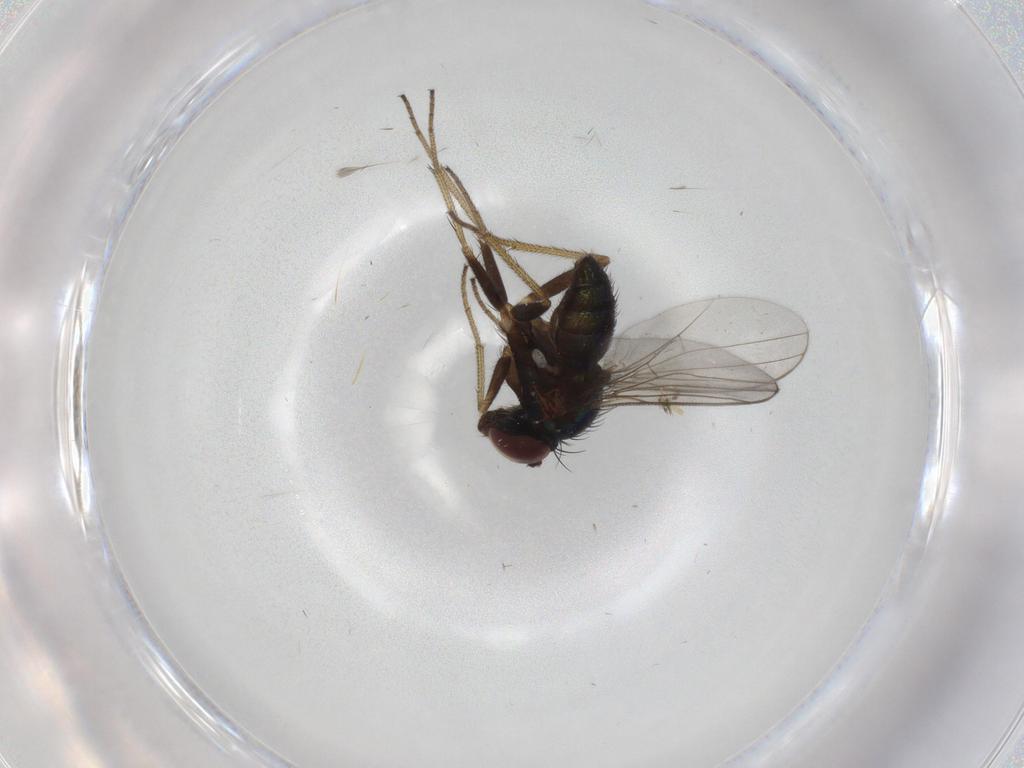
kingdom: Animalia
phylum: Arthropoda
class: Insecta
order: Diptera
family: Dolichopodidae
